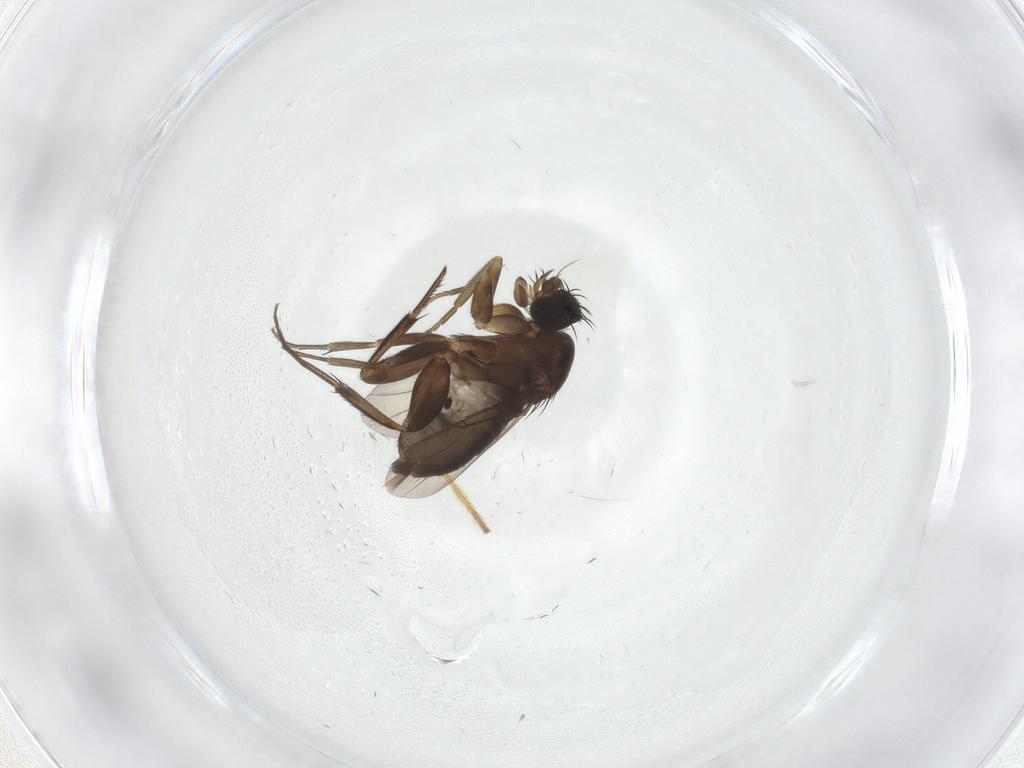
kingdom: Animalia
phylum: Arthropoda
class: Insecta
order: Diptera
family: Phoridae
